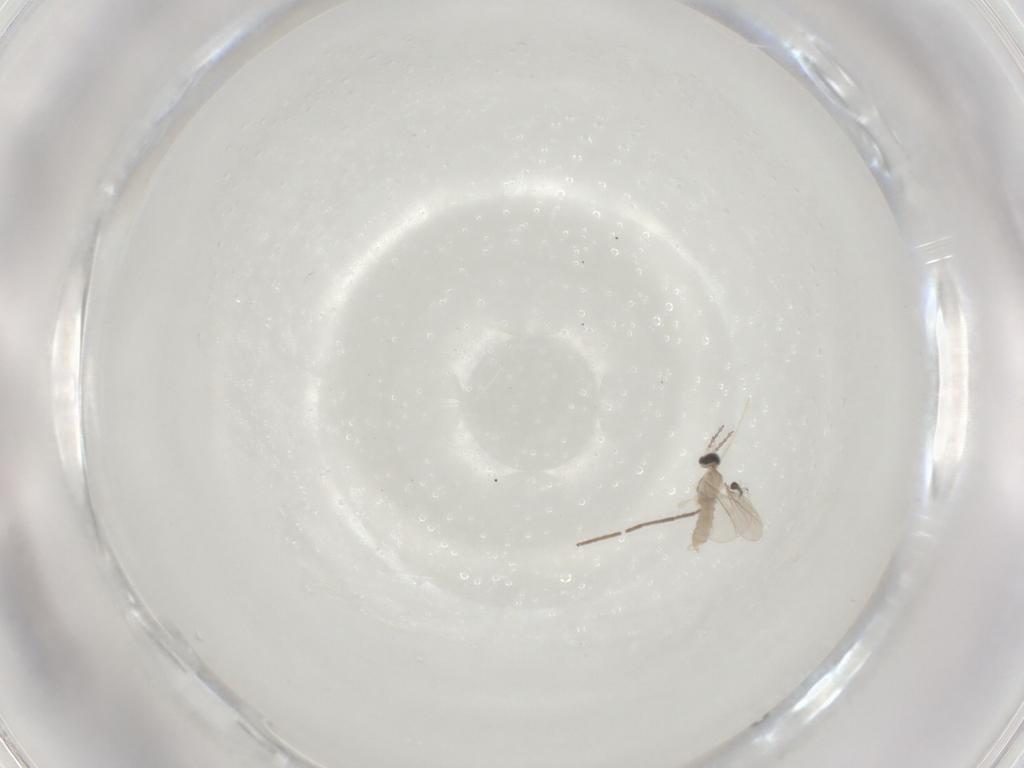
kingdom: Animalia
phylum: Arthropoda
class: Insecta
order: Diptera
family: Chironomidae
